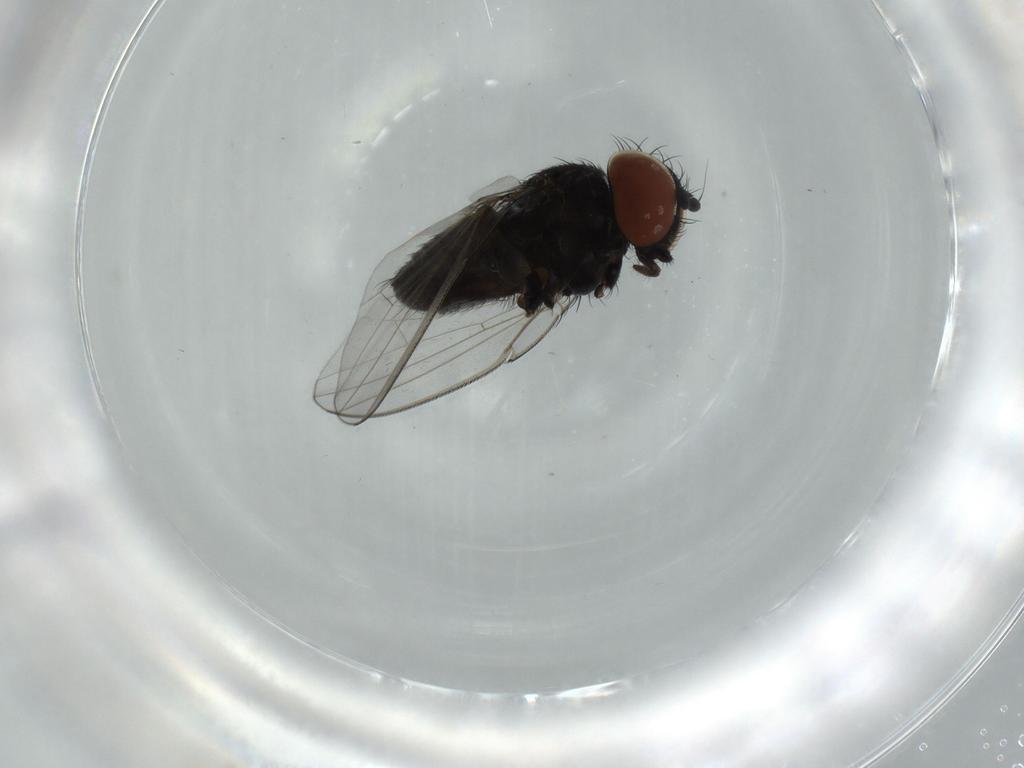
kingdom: Animalia
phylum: Arthropoda
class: Insecta
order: Diptera
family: Milichiidae
